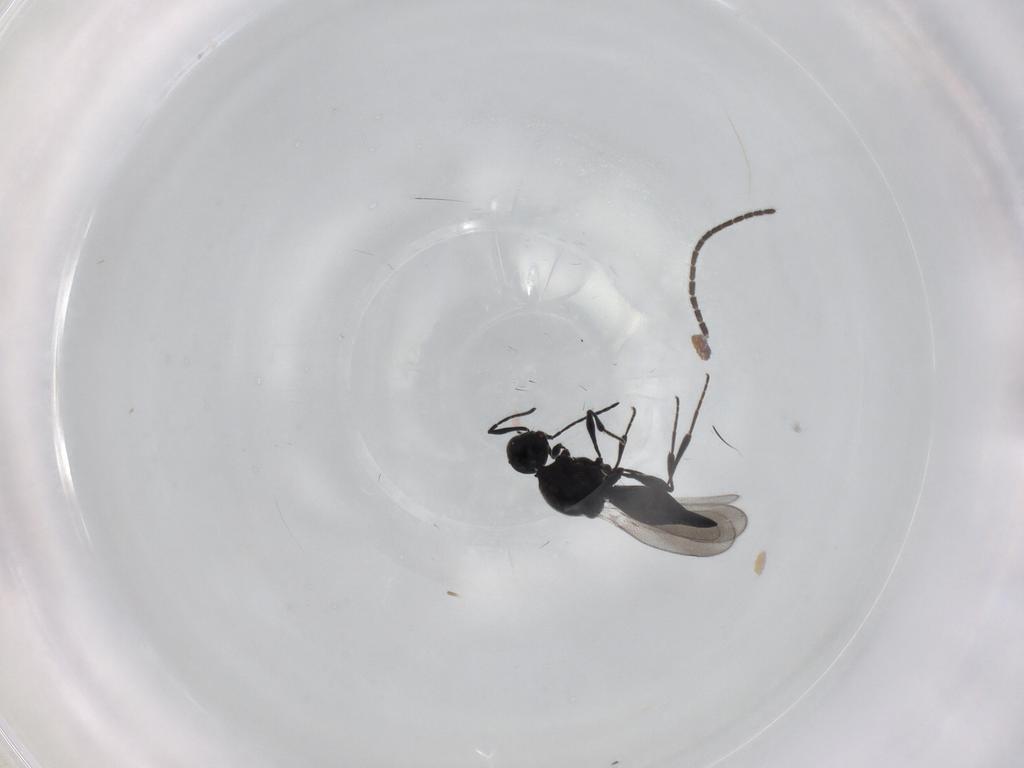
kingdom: Animalia
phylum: Arthropoda
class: Insecta
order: Diptera
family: Mythicomyiidae
